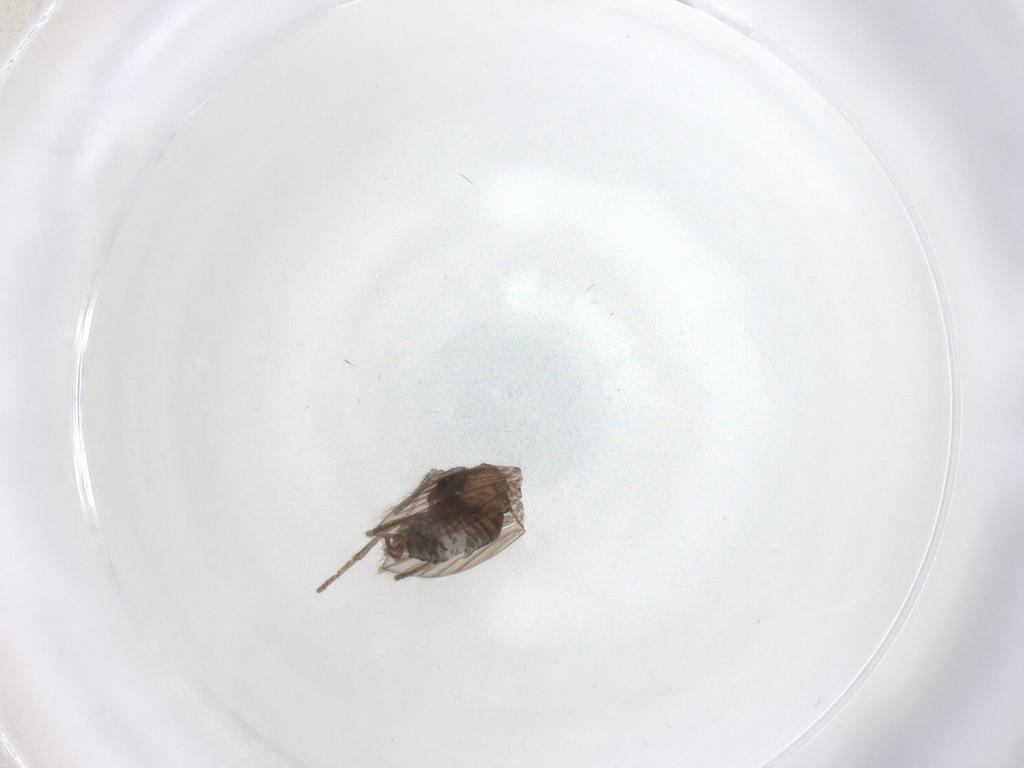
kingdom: Animalia
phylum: Arthropoda
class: Insecta
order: Diptera
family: Psychodidae
